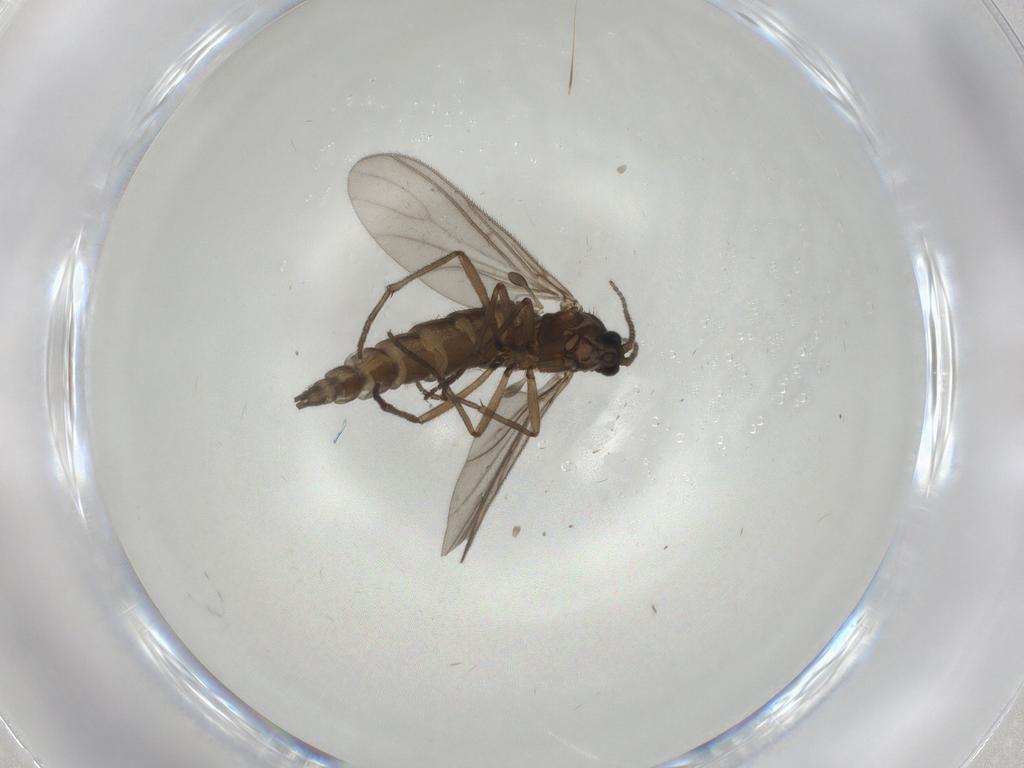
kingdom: Animalia
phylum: Arthropoda
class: Insecta
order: Diptera
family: Sciaridae
